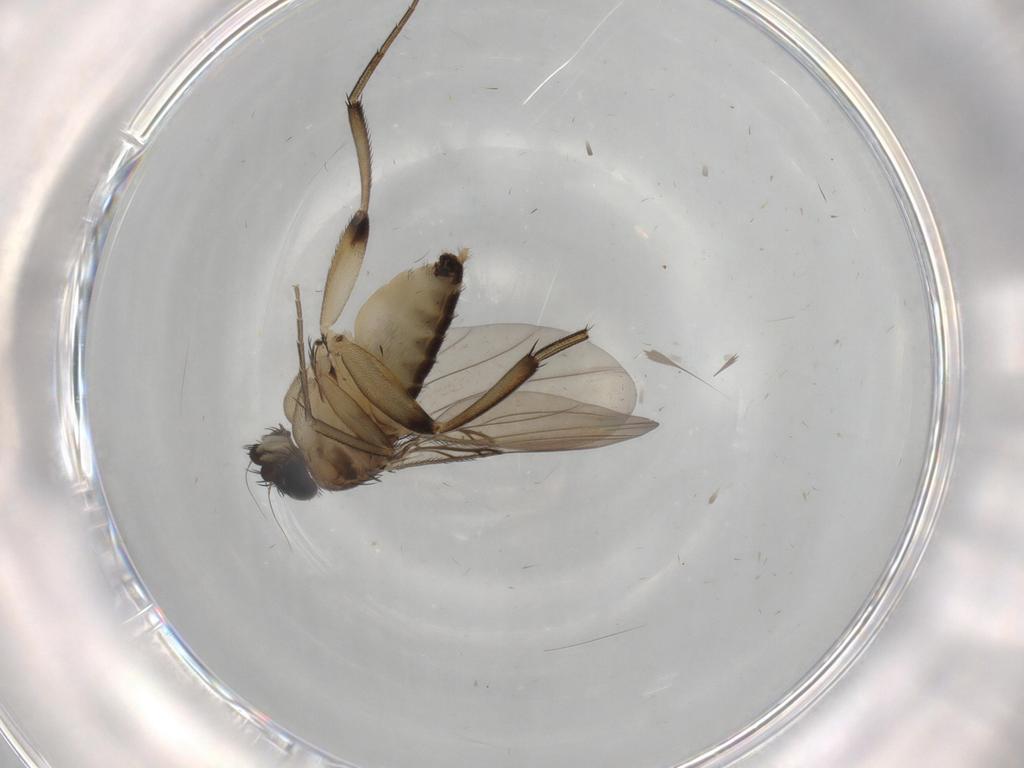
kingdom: Animalia
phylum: Arthropoda
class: Insecta
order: Diptera
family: Phoridae
